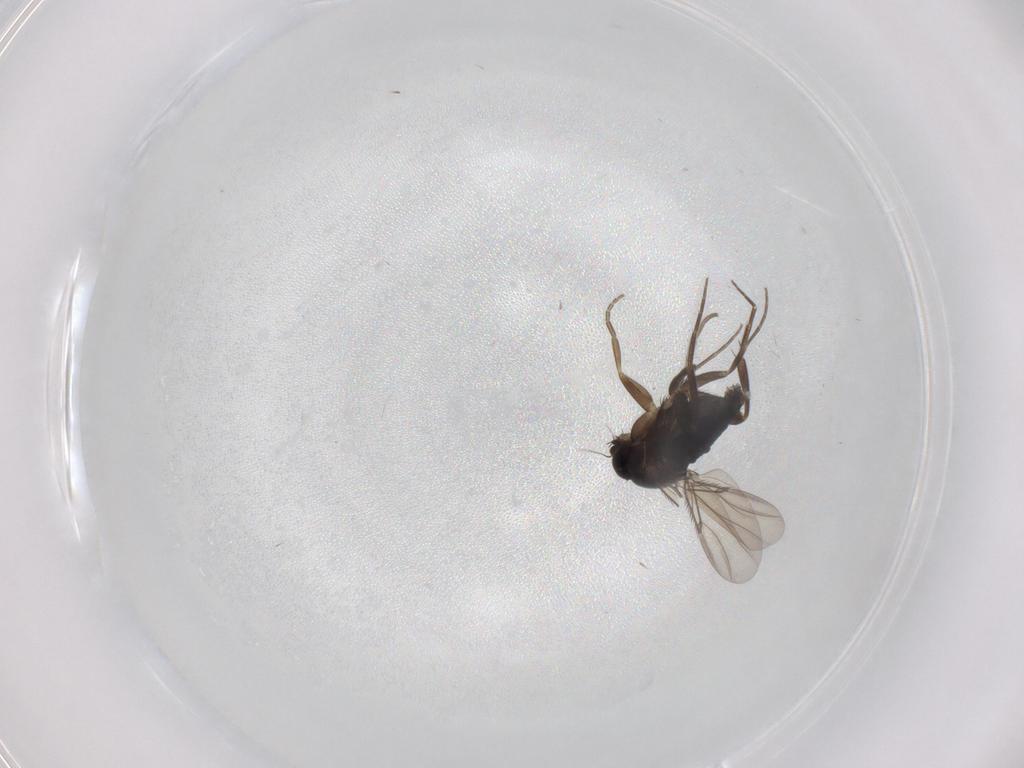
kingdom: Animalia
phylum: Arthropoda
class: Insecta
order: Diptera
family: Phoridae
